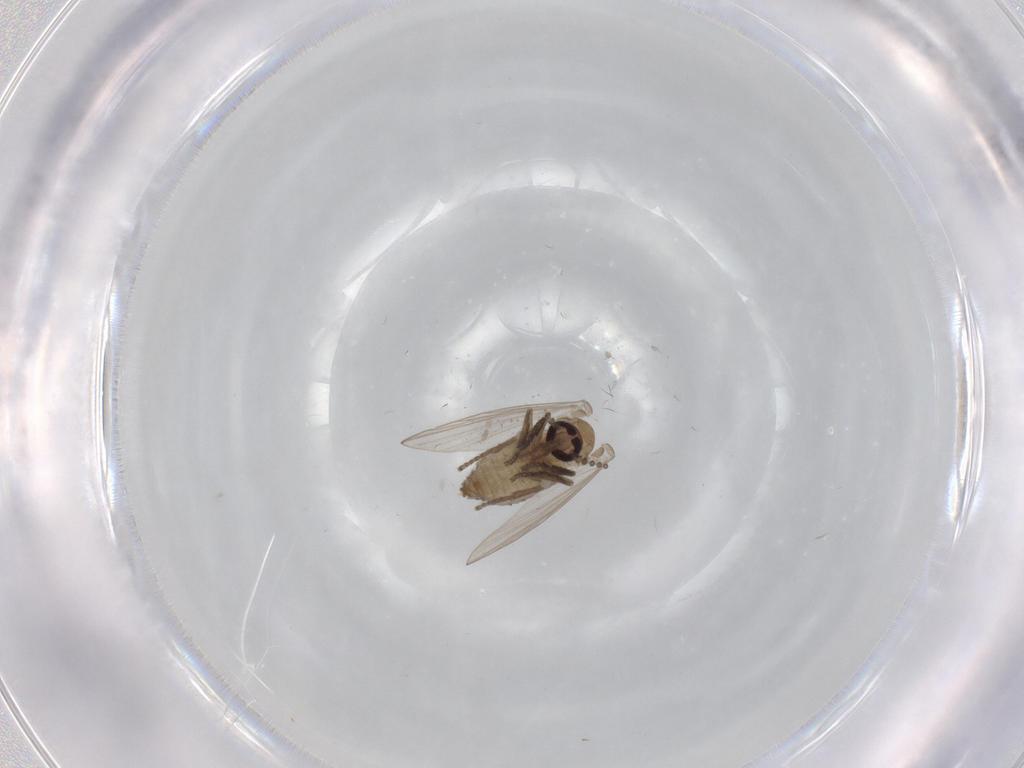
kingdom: Animalia
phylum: Arthropoda
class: Insecta
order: Diptera
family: Psychodidae
